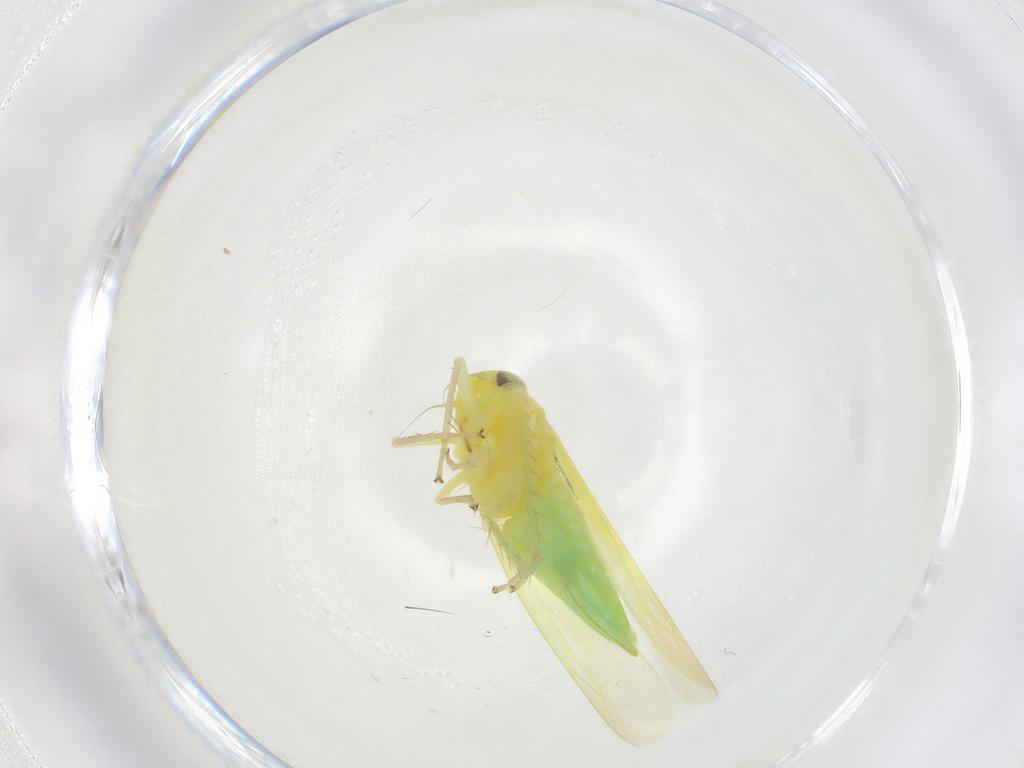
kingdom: Animalia
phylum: Arthropoda
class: Insecta
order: Hemiptera
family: Cicadellidae
